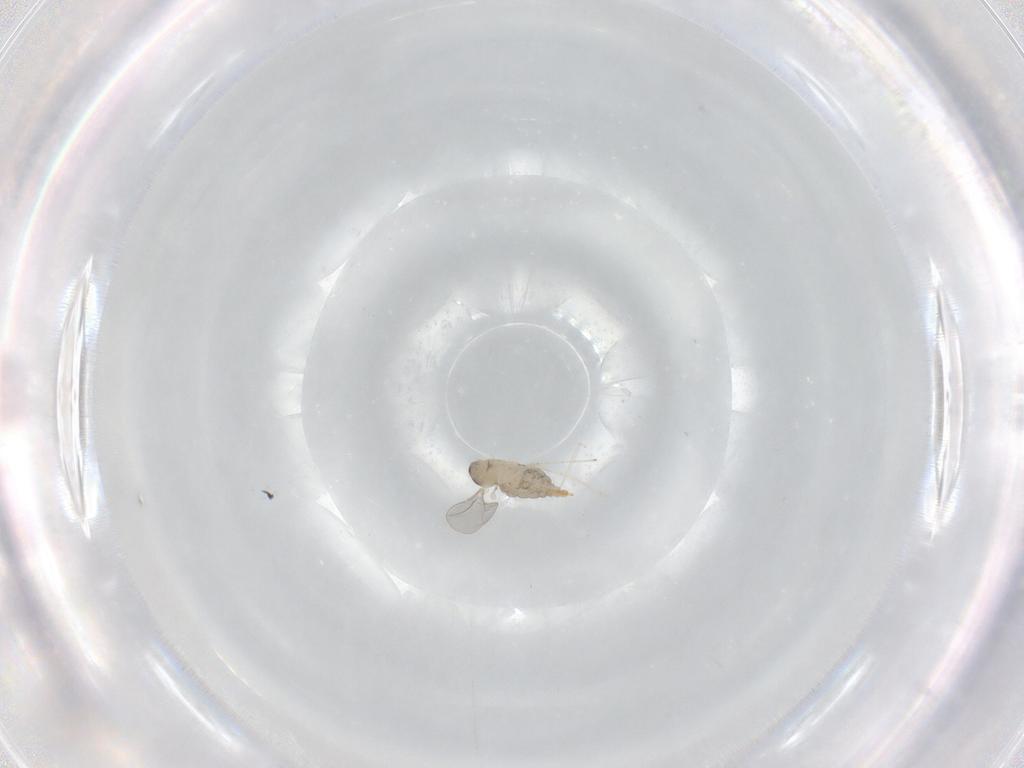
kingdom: Animalia
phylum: Arthropoda
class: Insecta
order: Diptera
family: Cecidomyiidae
